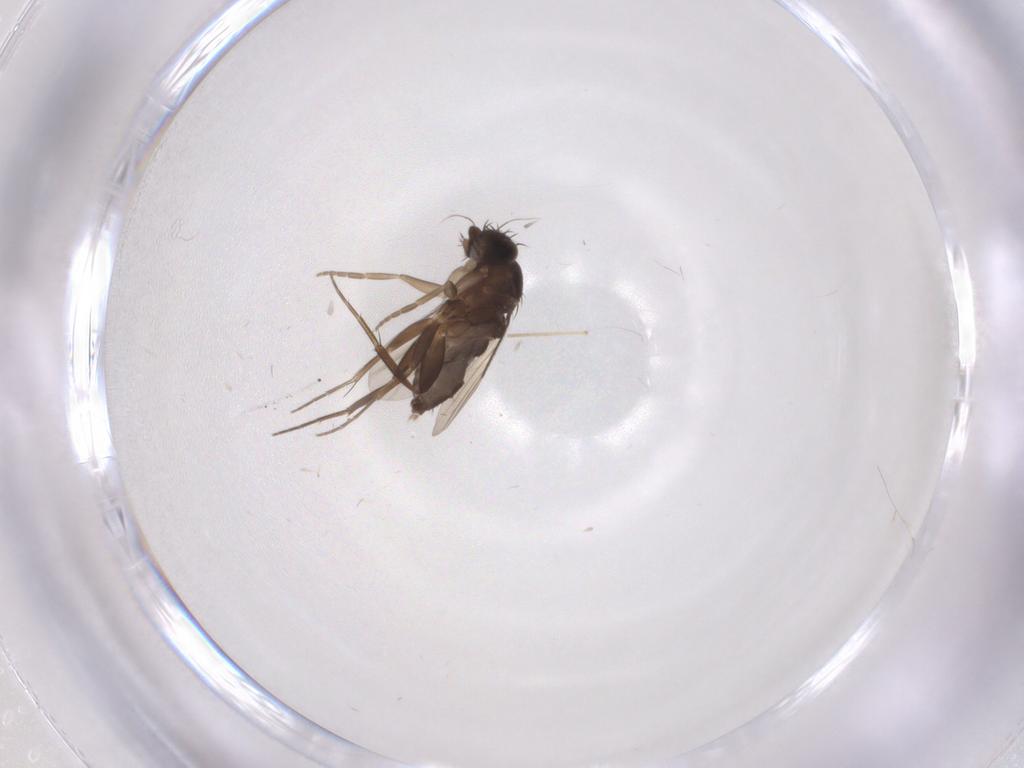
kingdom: Animalia
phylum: Arthropoda
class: Insecta
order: Diptera
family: Phoridae
